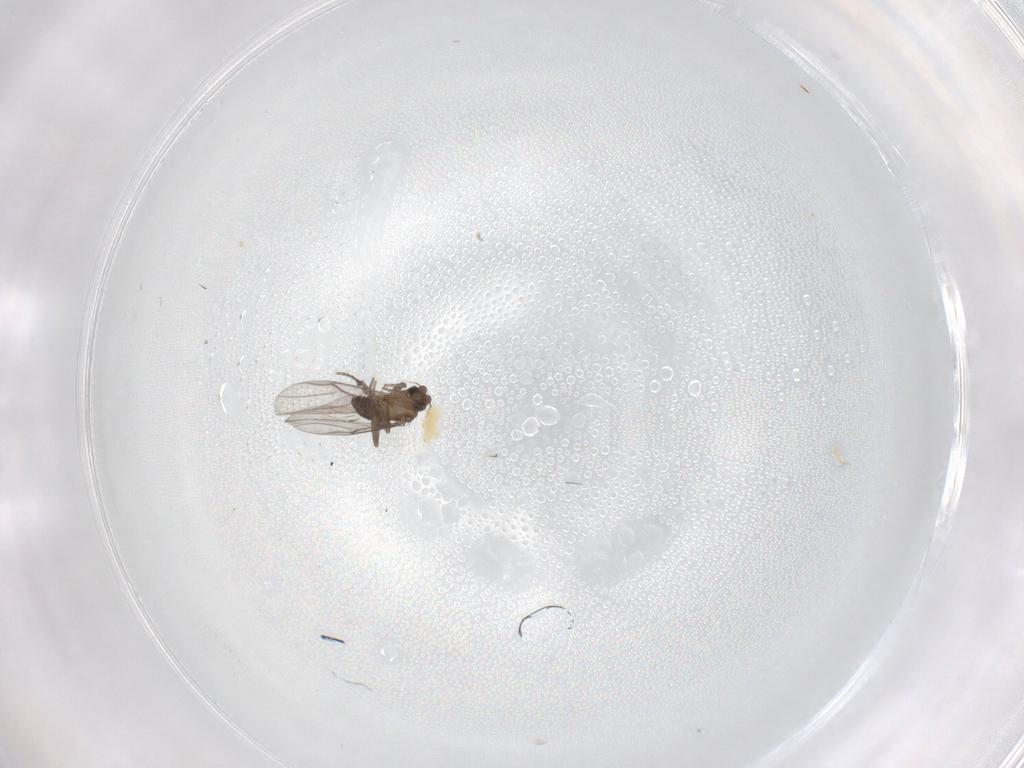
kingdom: Animalia
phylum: Arthropoda
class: Insecta
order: Diptera
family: Phoridae
